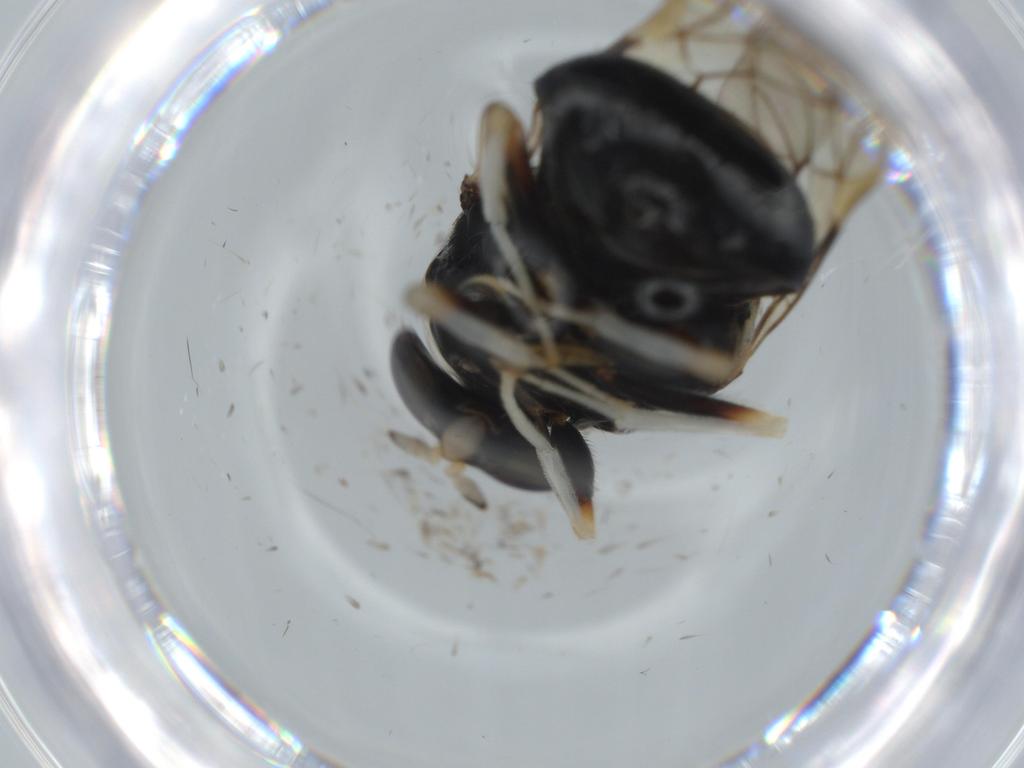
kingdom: Animalia
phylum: Arthropoda
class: Insecta
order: Diptera
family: Stratiomyidae
